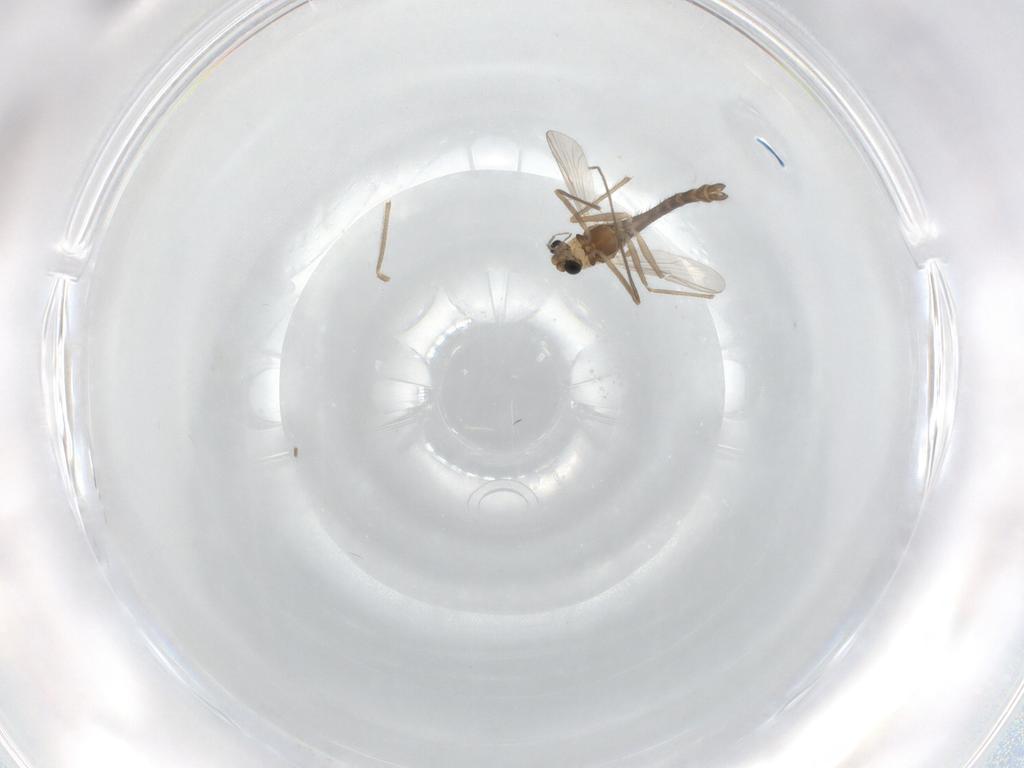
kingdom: Animalia
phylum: Arthropoda
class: Insecta
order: Diptera
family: Chironomidae
